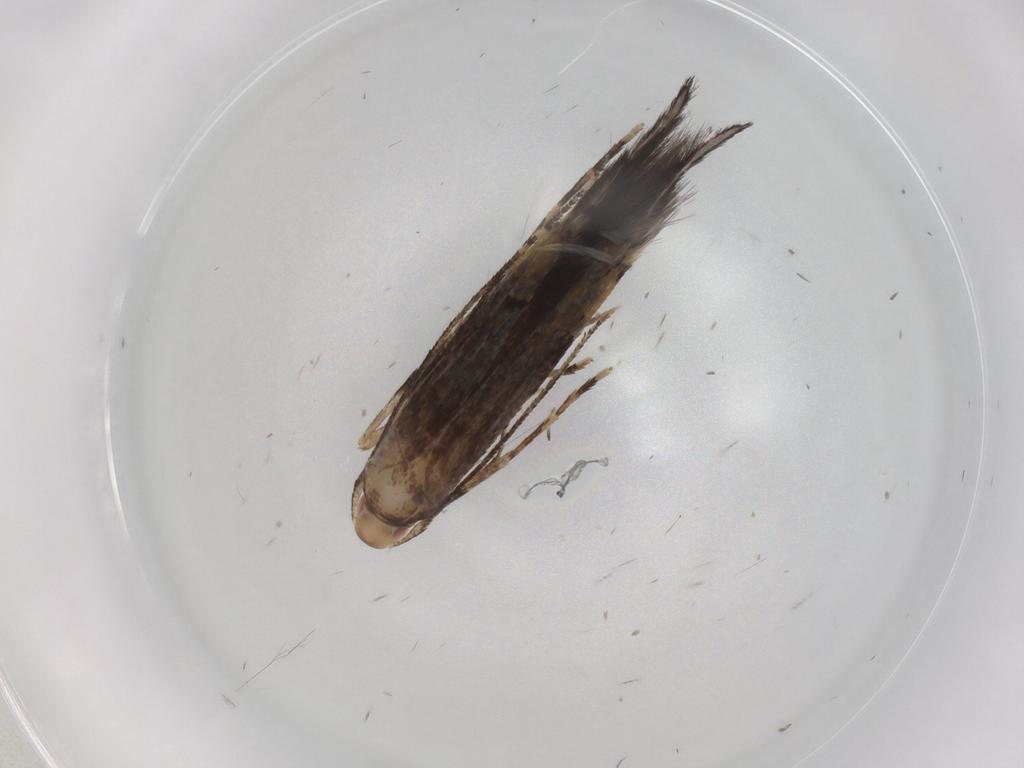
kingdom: Animalia
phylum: Arthropoda
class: Insecta
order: Lepidoptera
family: Cosmopterigidae
